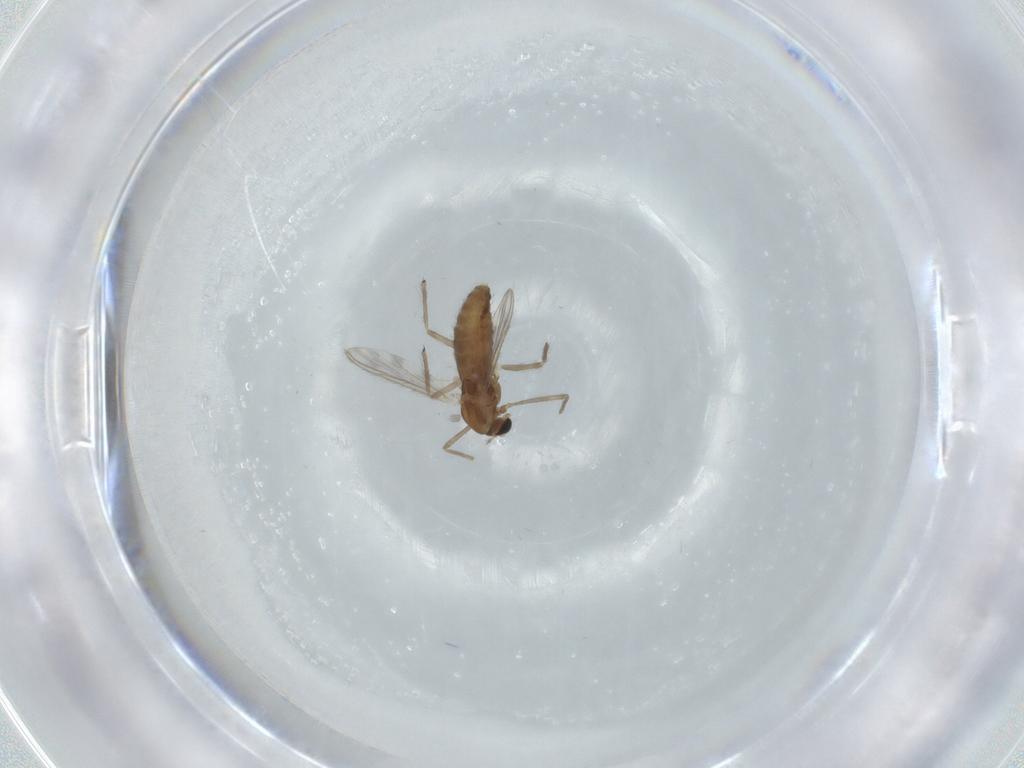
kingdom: Animalia
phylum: Arthropoda
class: Insecta
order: Diptera
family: Chironomidae
